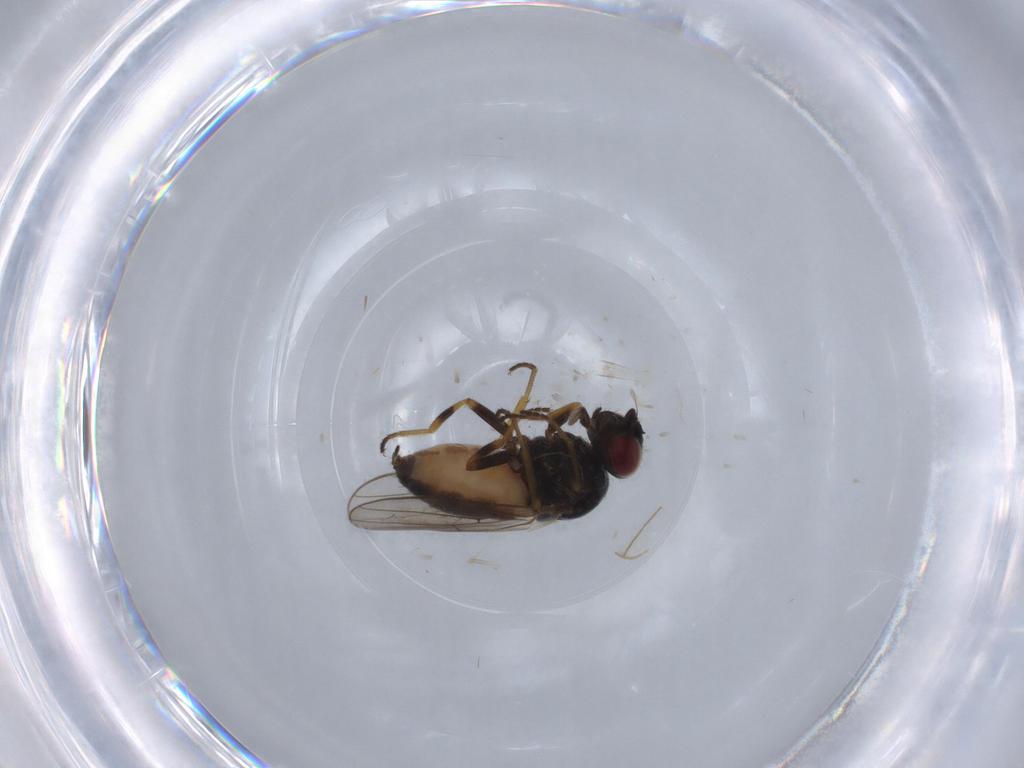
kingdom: Animalia
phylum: Arthropoda
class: Insecta
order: Diptera
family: Chloropidae
